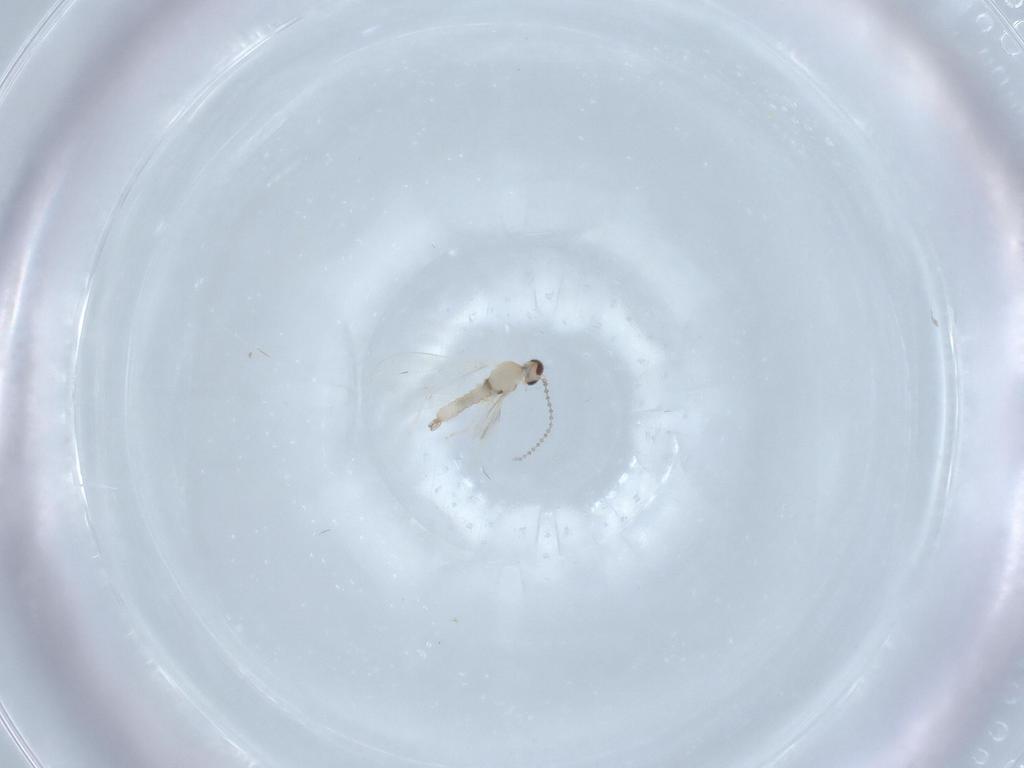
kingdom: Animalia
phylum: Arthropoda
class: Insecta
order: Diptera
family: Cecidomyiidae
